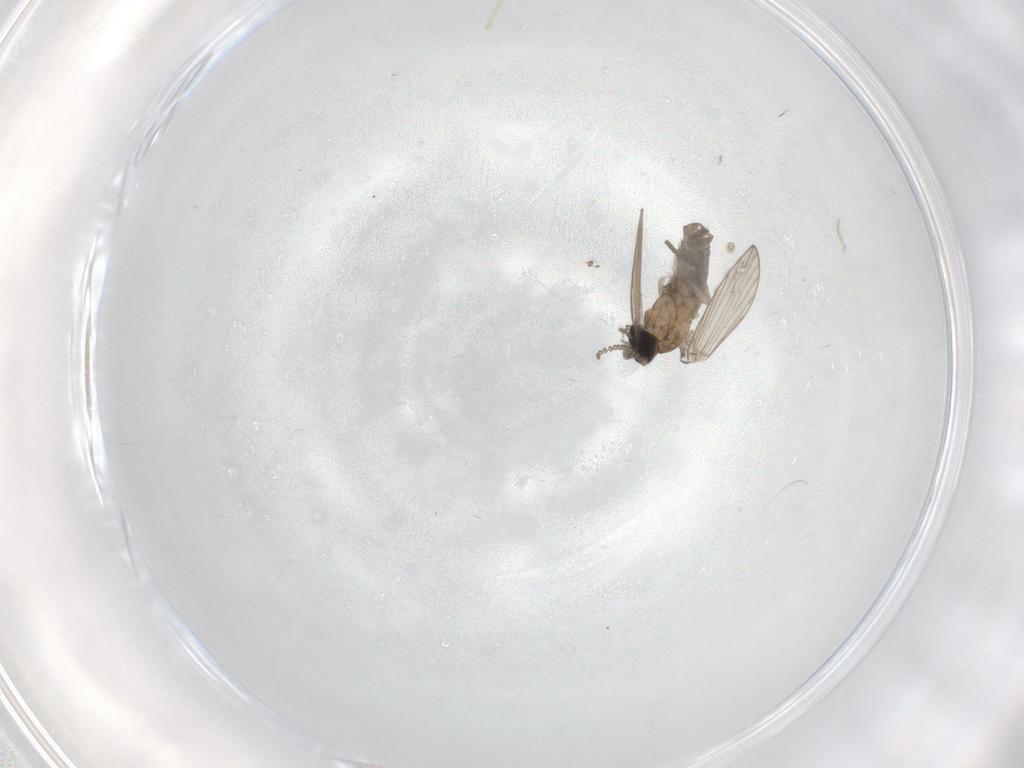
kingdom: Animalia
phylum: Arthropoda
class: Insecta
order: Diptera
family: Psychodidae
